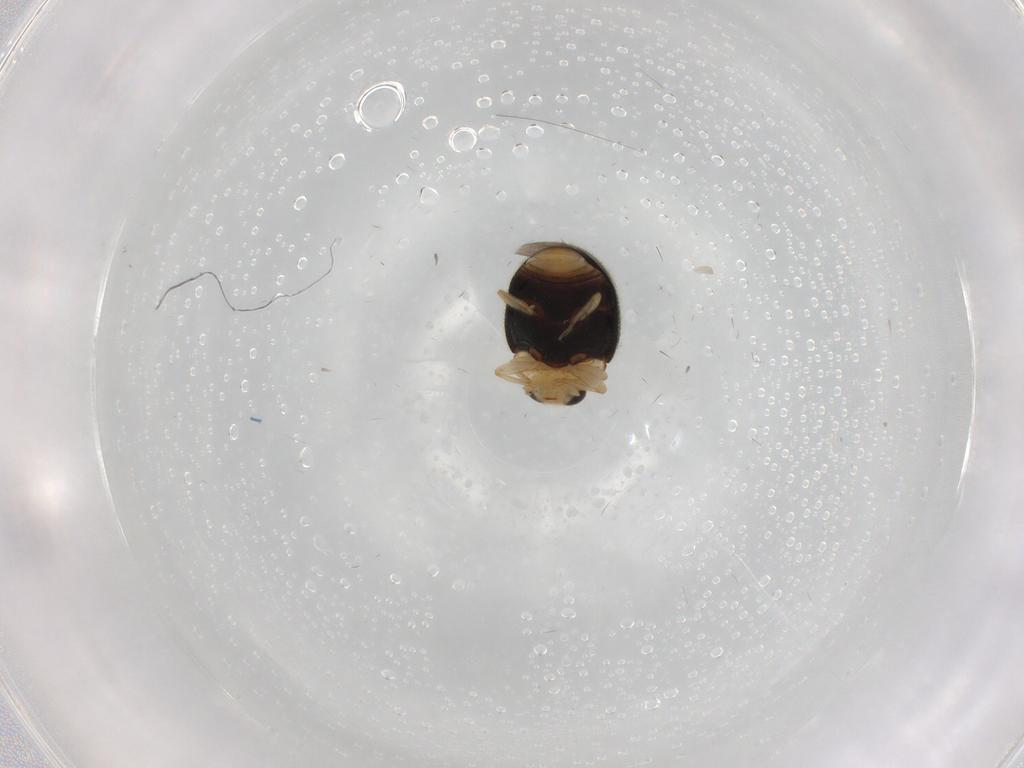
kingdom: Animalia
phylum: Arthropoda
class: Insecta
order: Coleoptera
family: Coccinellidae
